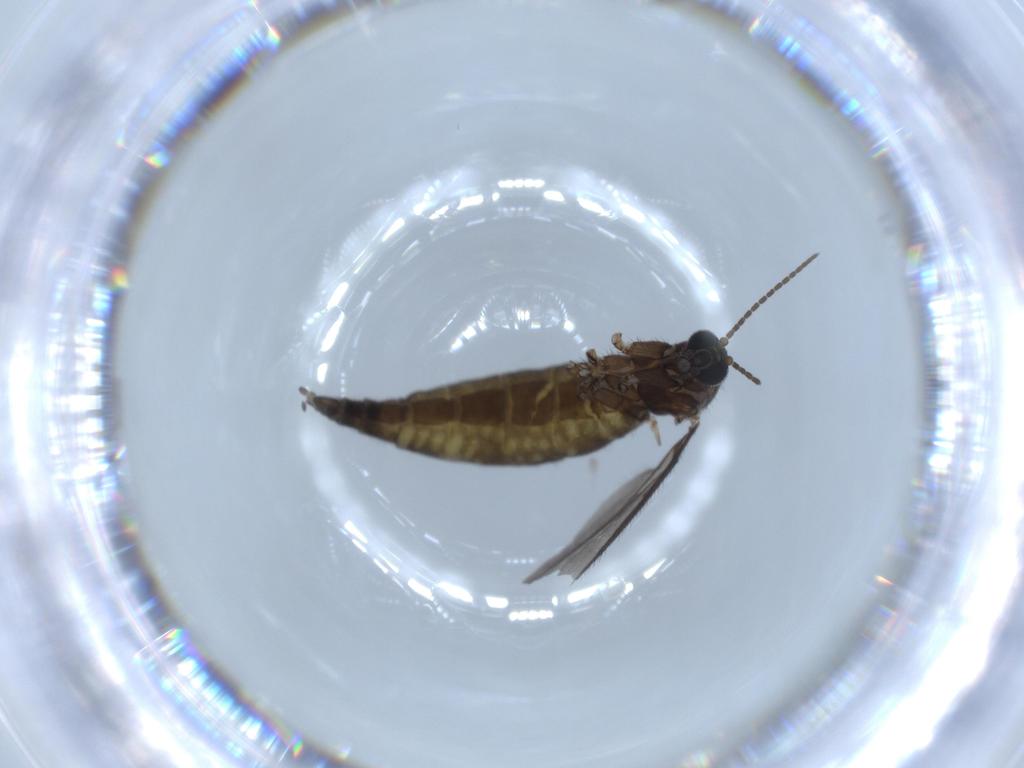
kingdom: Animalia
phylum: Arthropoda
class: Insecta
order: Diptera
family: Sciaridae
